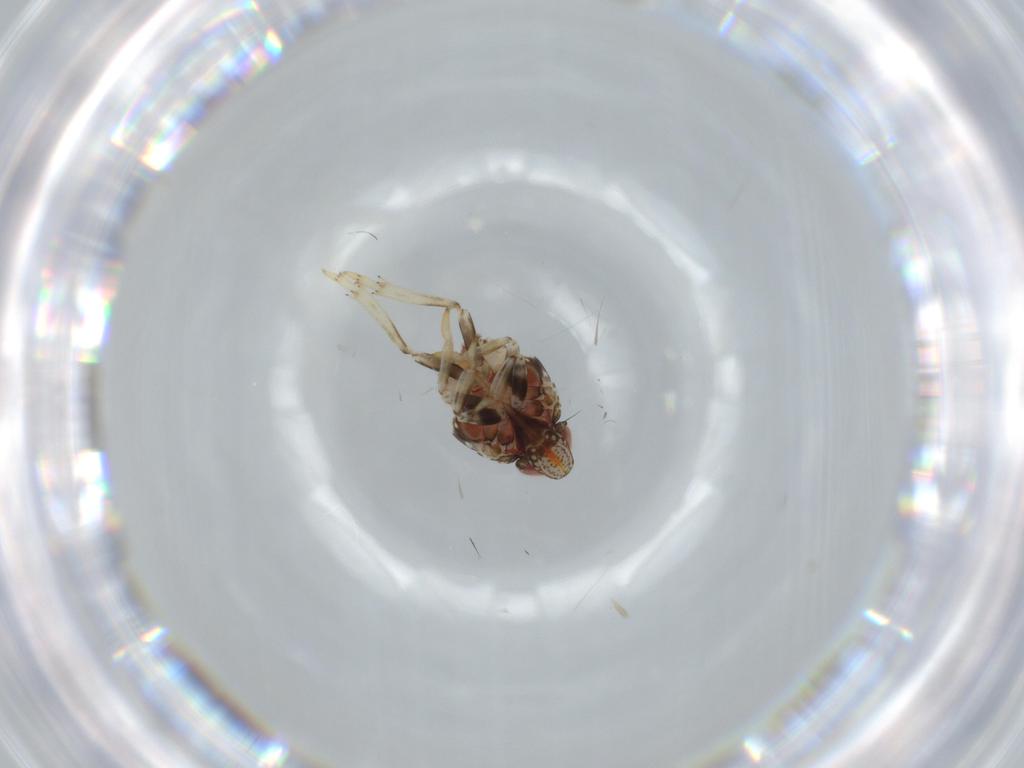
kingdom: Animalia
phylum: Arthropoda
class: Insecta
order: Hemiptera
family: Issidae
